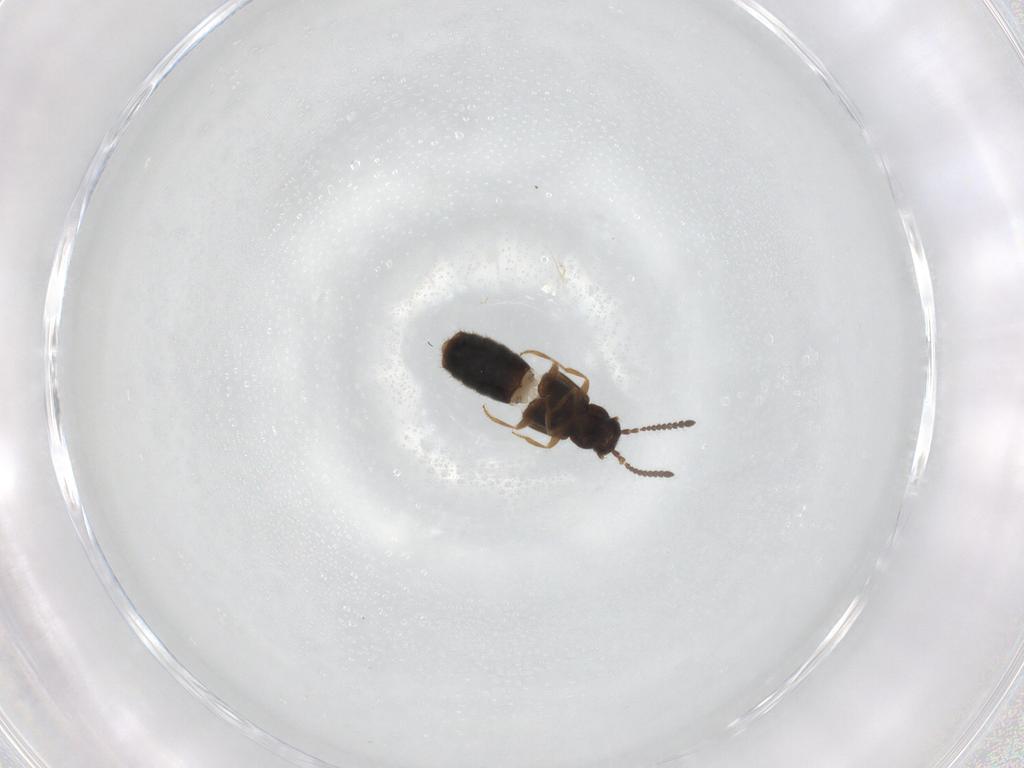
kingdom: Animalia
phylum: Arthropoda
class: Insecta
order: Coleoptera
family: Staphylinidae
